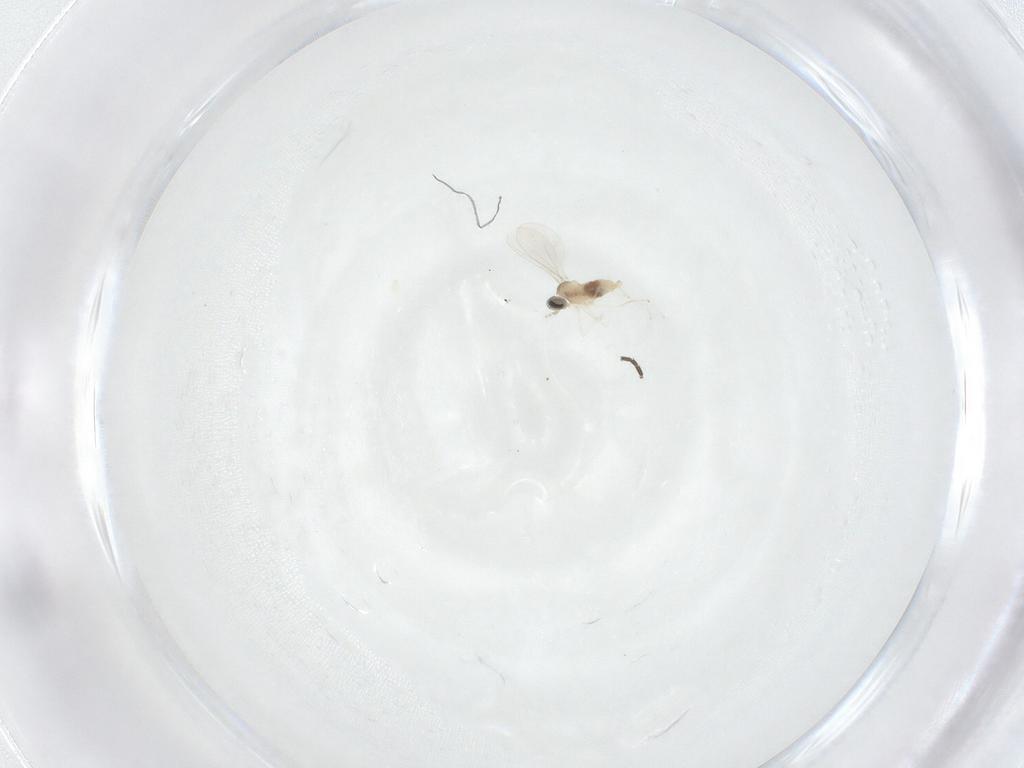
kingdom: Animalia
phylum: Arthropoda
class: Insecta
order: Diptera
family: Cecidomyiidae
